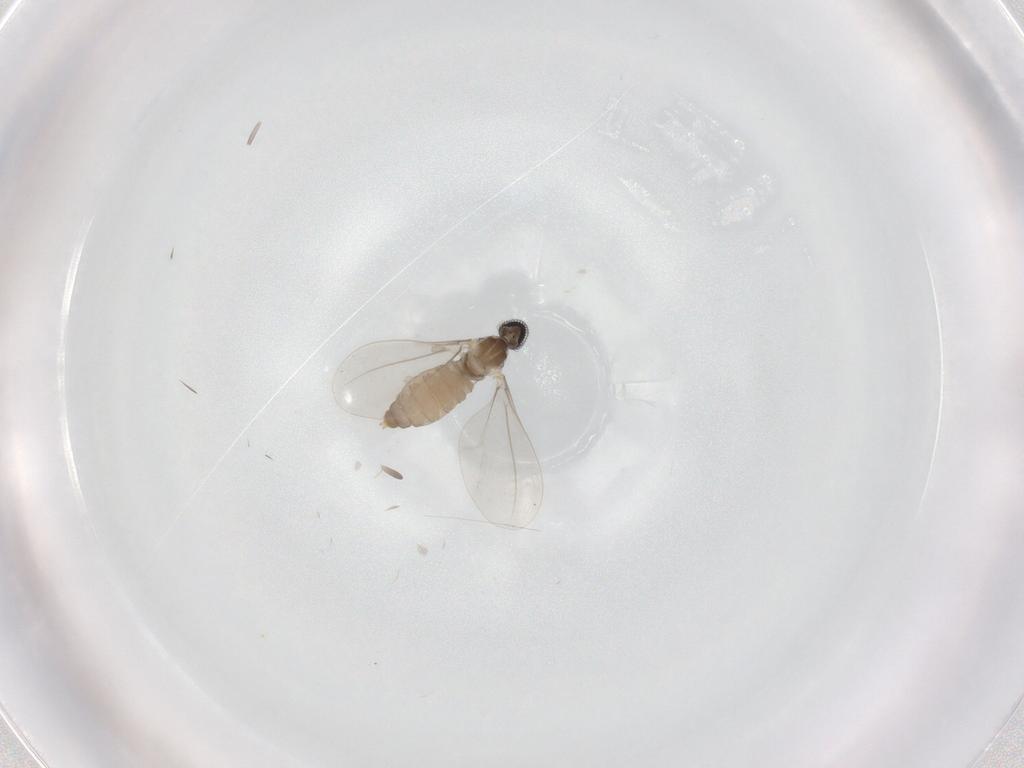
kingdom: Animalia
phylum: Arthropoda
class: Insecta
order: Diptera
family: Cecidomyiidae
